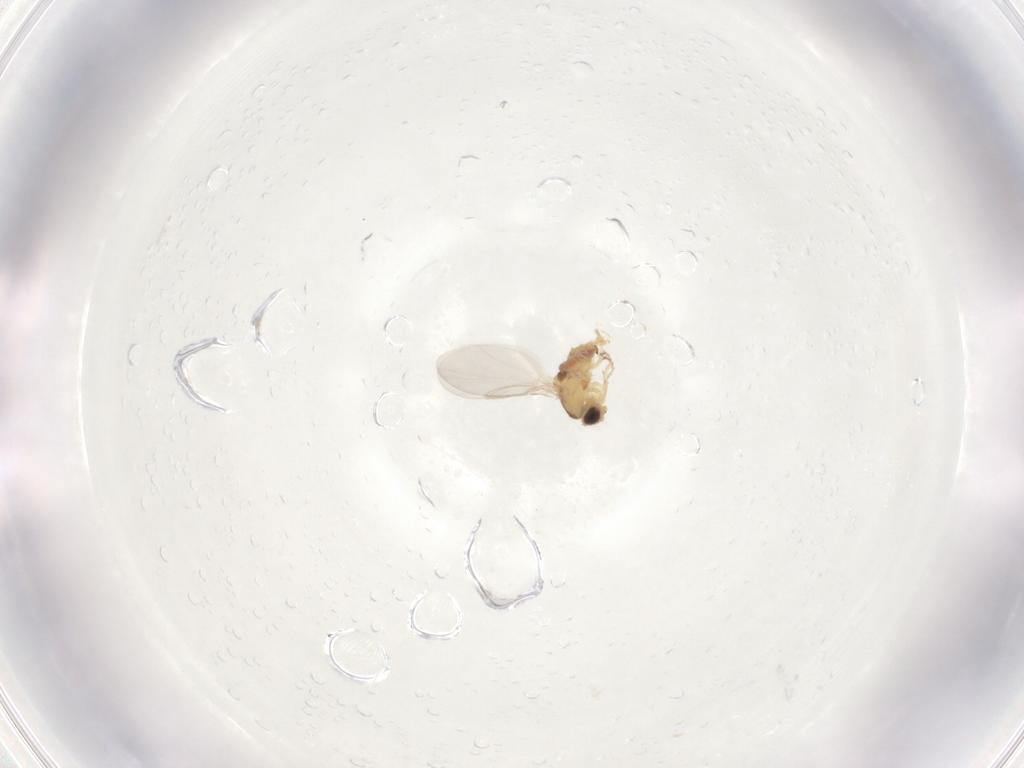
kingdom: Animalia
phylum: Arthropoda
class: Insecta
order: Diptera
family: Agromyzidae
